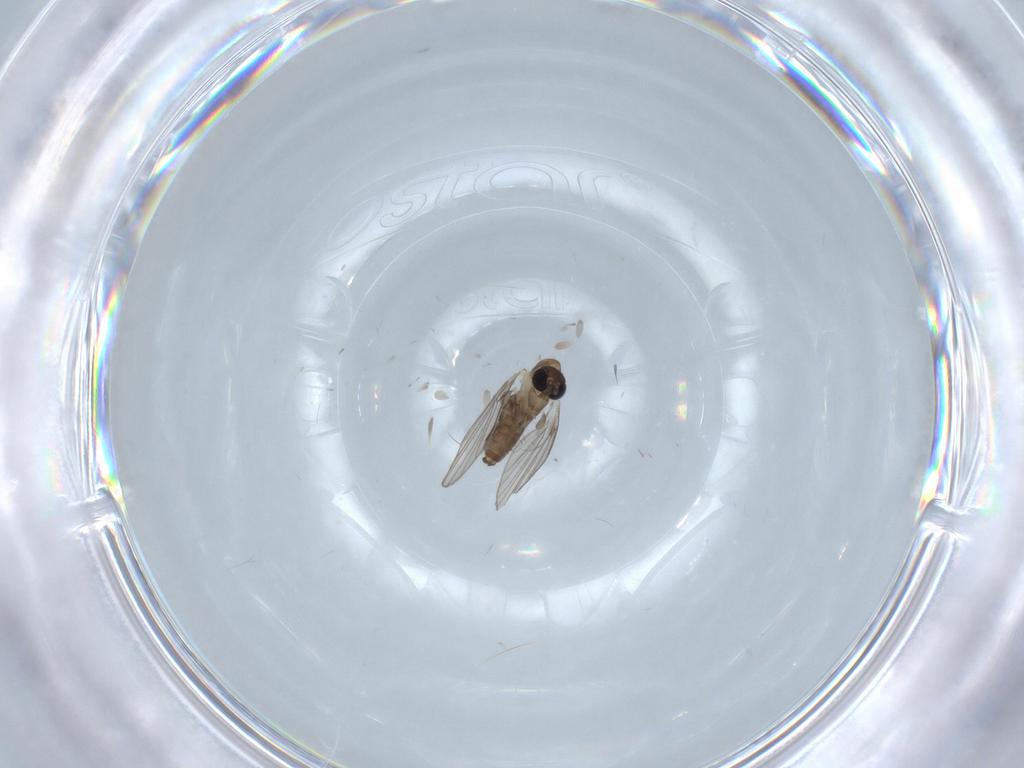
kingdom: Animalia
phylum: Arthropoda
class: Insecta
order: Diptera
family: Psychodidae
